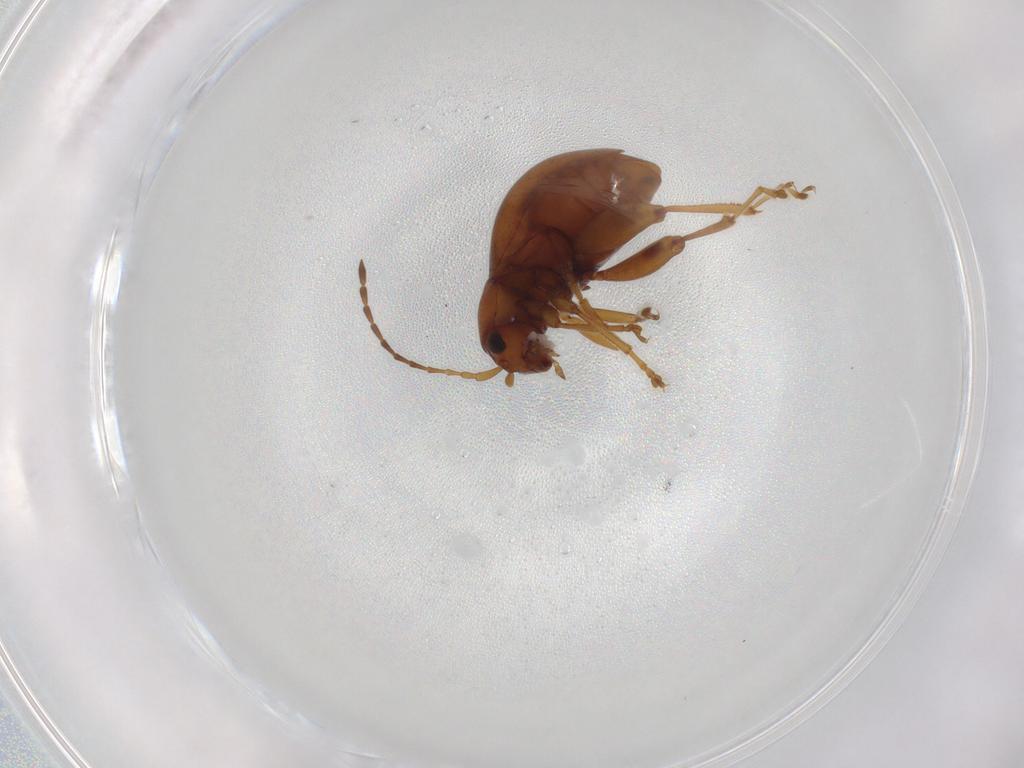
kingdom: Animalia
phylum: Arthropoda
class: Insecta
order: Coleoptera
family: Chrysomelidae
